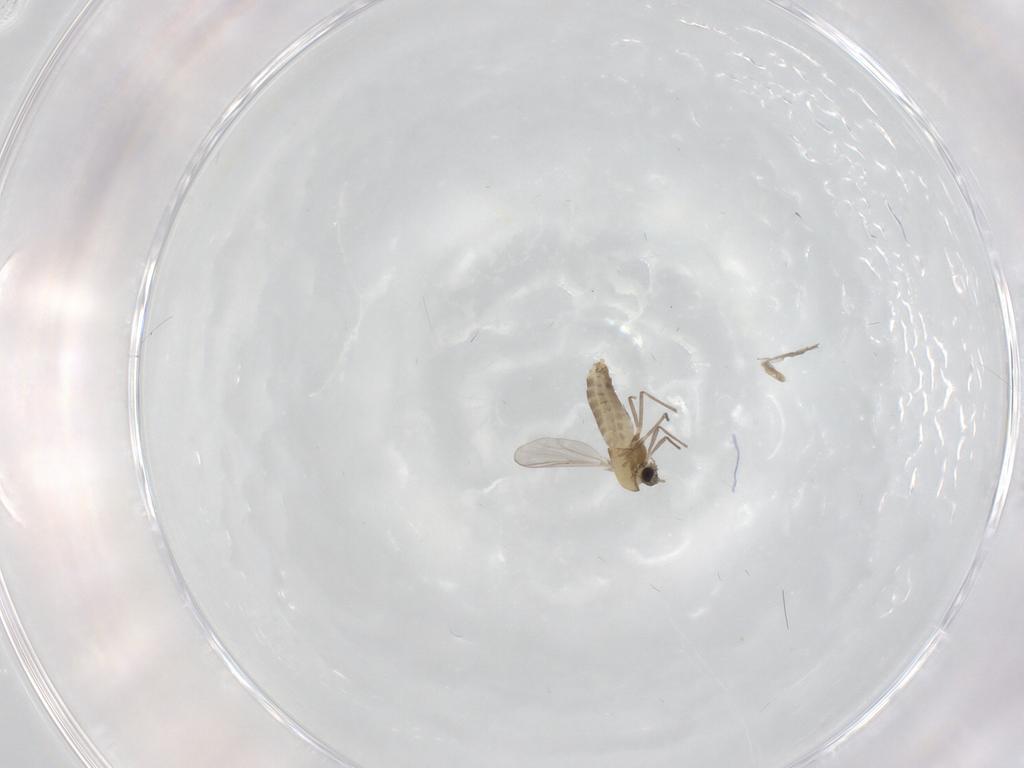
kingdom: Animalia
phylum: Arthropoda
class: Insecta
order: Diptera
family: Chironomidae
